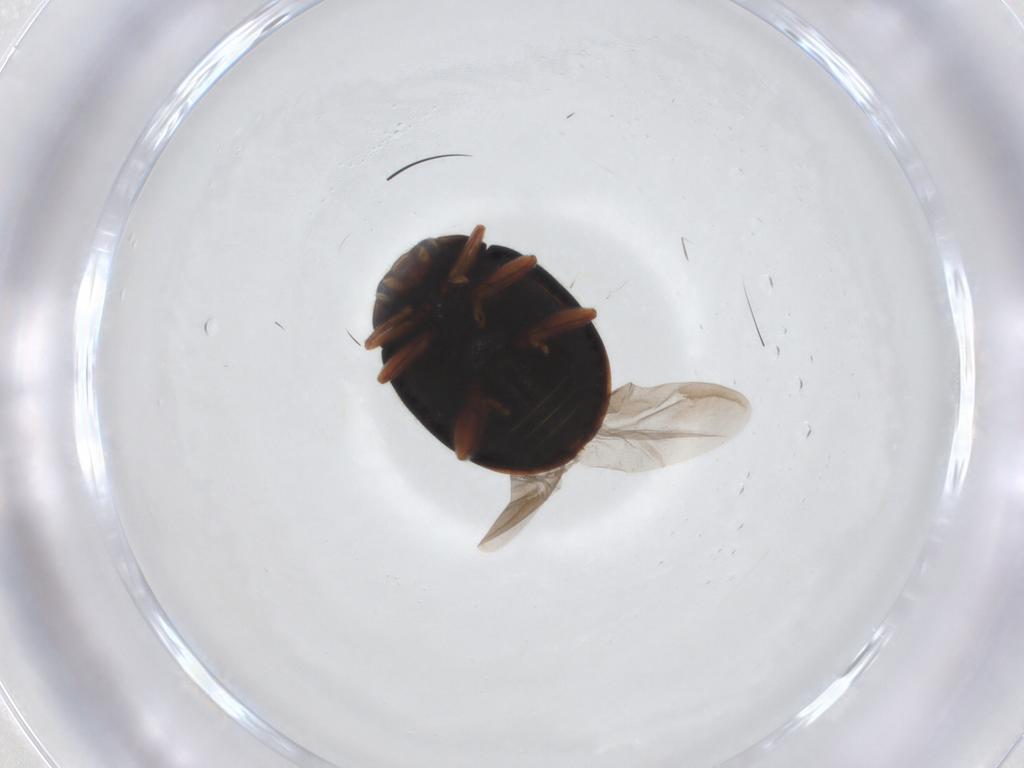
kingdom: Animalia
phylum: Arthropoda
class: Insecta
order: Coleoptera
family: Coccinellidae
